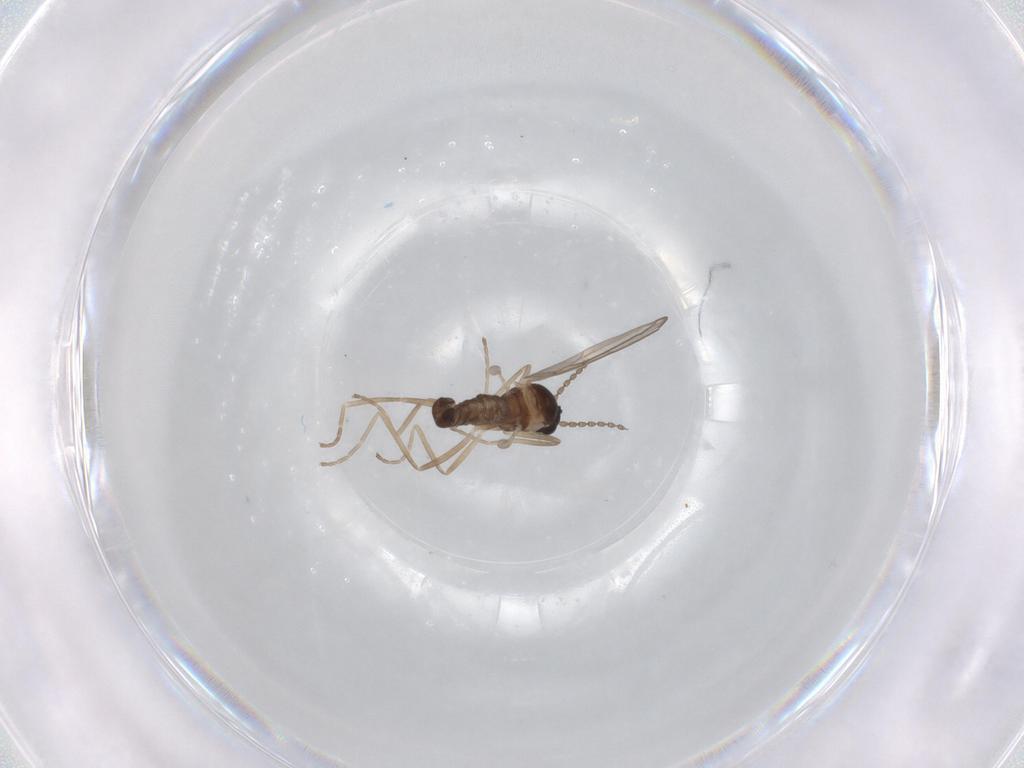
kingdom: Animalia
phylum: Arthropoda
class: Insecta
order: Diptera
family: Cecidomyiidae
